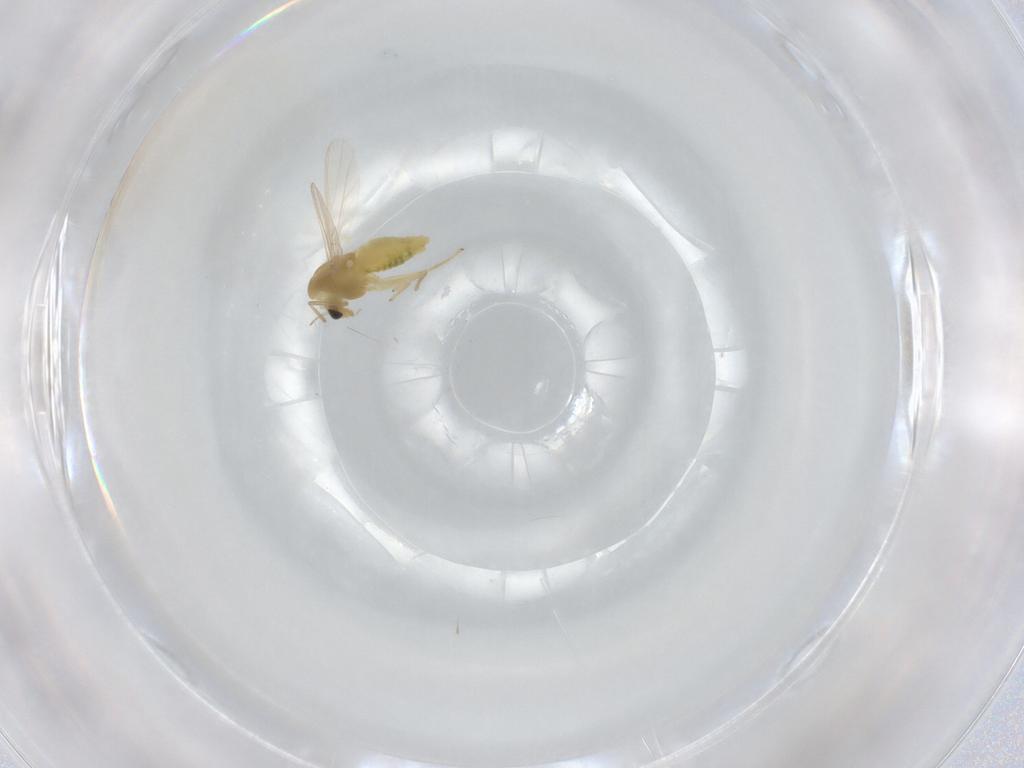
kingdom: Animalia
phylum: Arthropoda
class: Insecta
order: Diptera
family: Chironomidae
